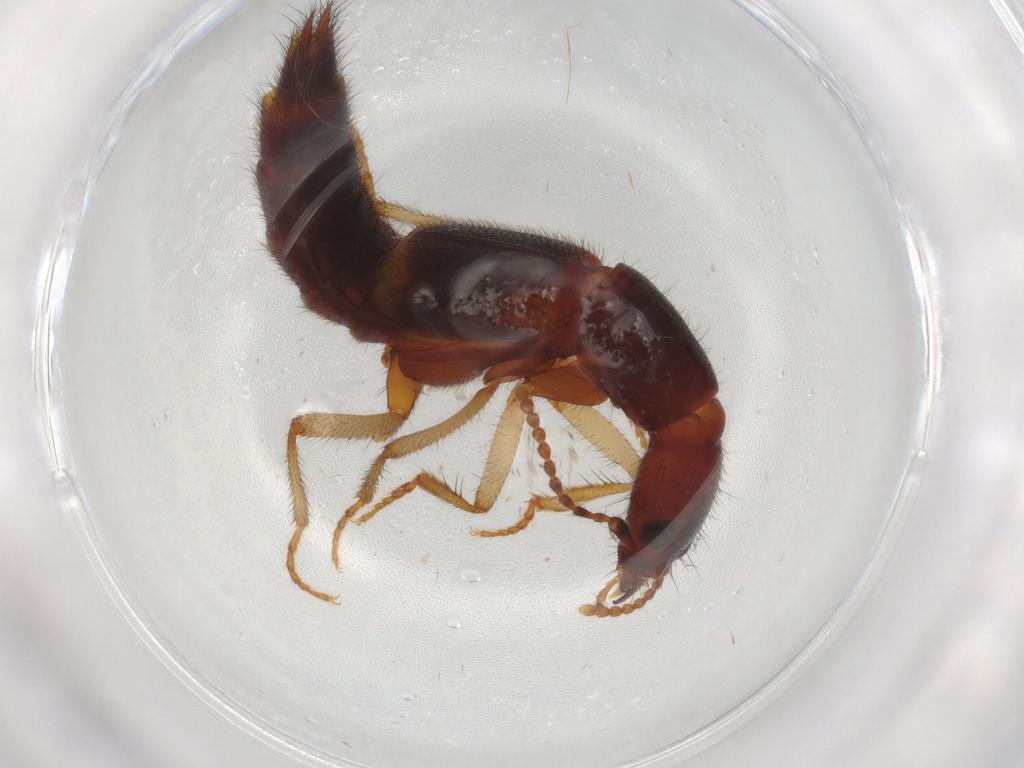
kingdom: Animalia
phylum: Arthropoda
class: Insecta
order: Coleoptera
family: Staphylinidae
